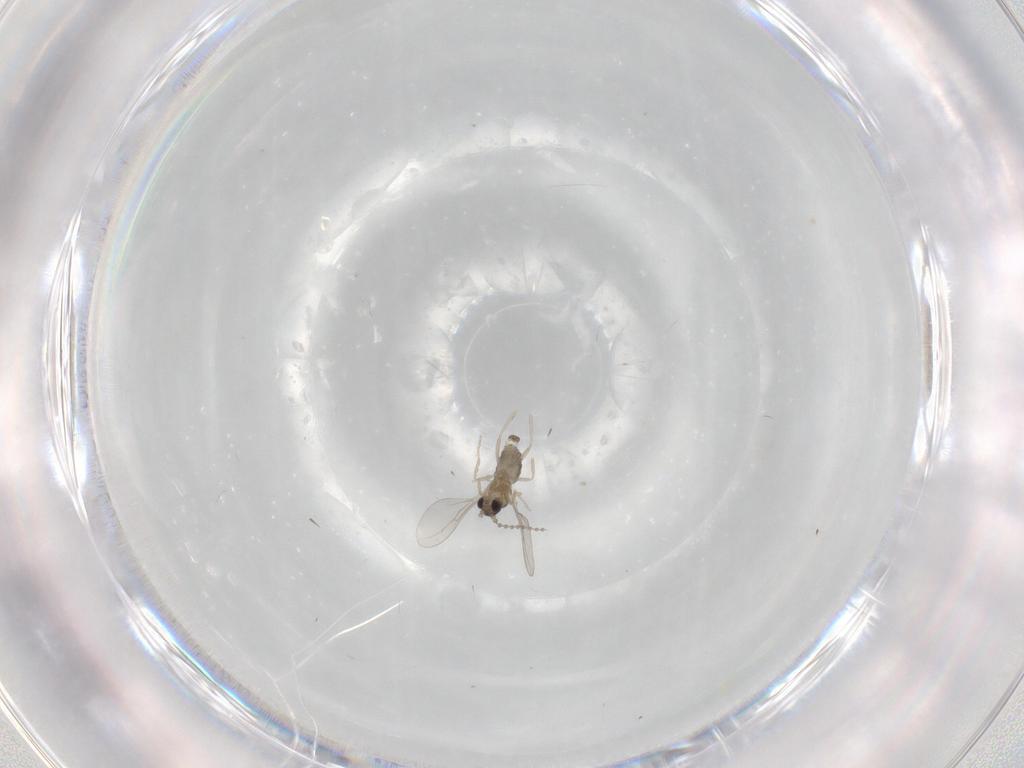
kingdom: Animalia
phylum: Arthropoda
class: Insecta
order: Diptera
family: Cecidomyiidae
